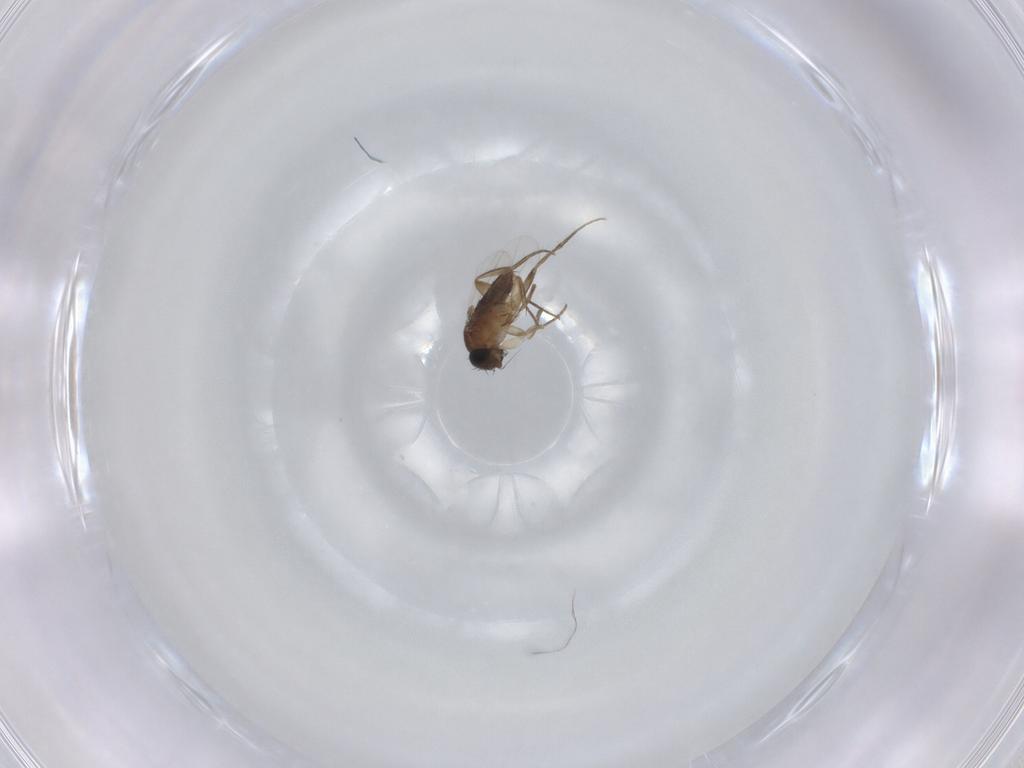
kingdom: Animalia
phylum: Arthropoda
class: Insecta
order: Diptera
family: Phoridae
